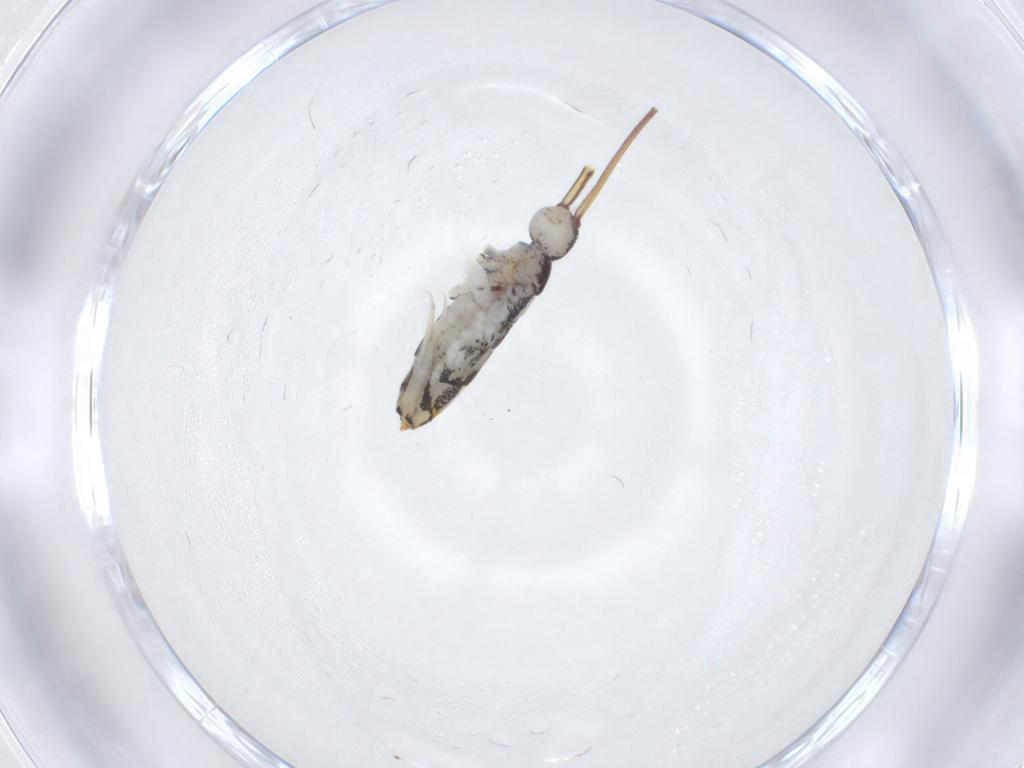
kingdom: Animalia
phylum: Arthropoda
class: Collembola
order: Entomobryomorpha
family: Entomobryidae
